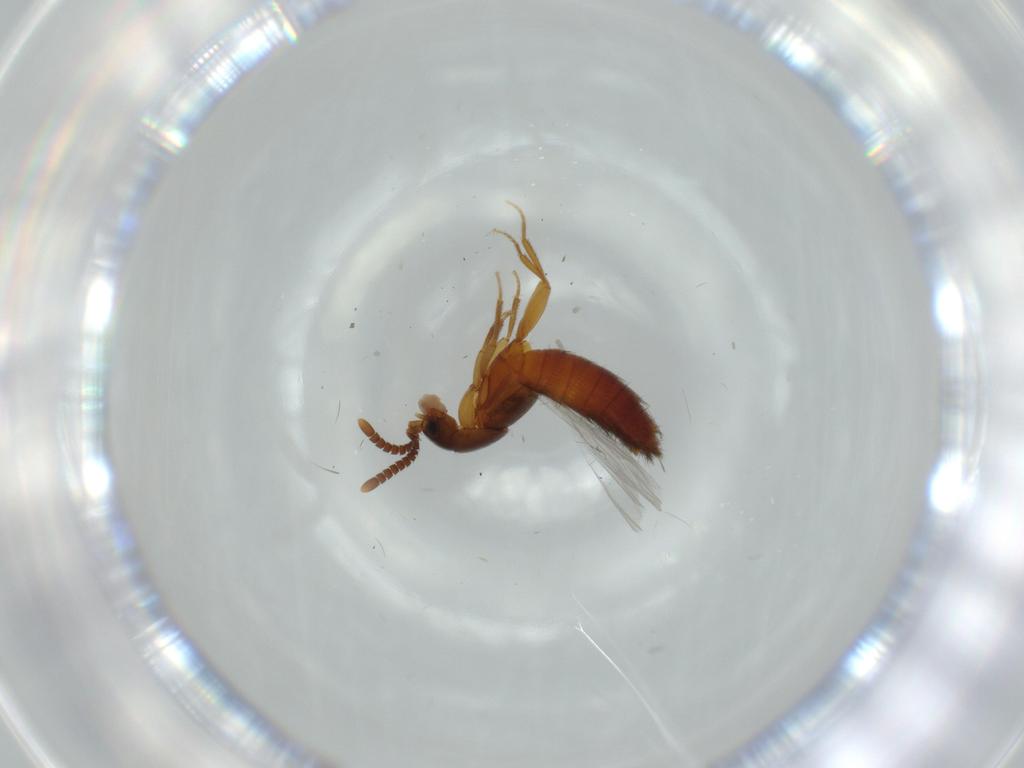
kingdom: Animalia
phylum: Arthropoda
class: Insecta
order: Coleoptera
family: Staphylinidae
